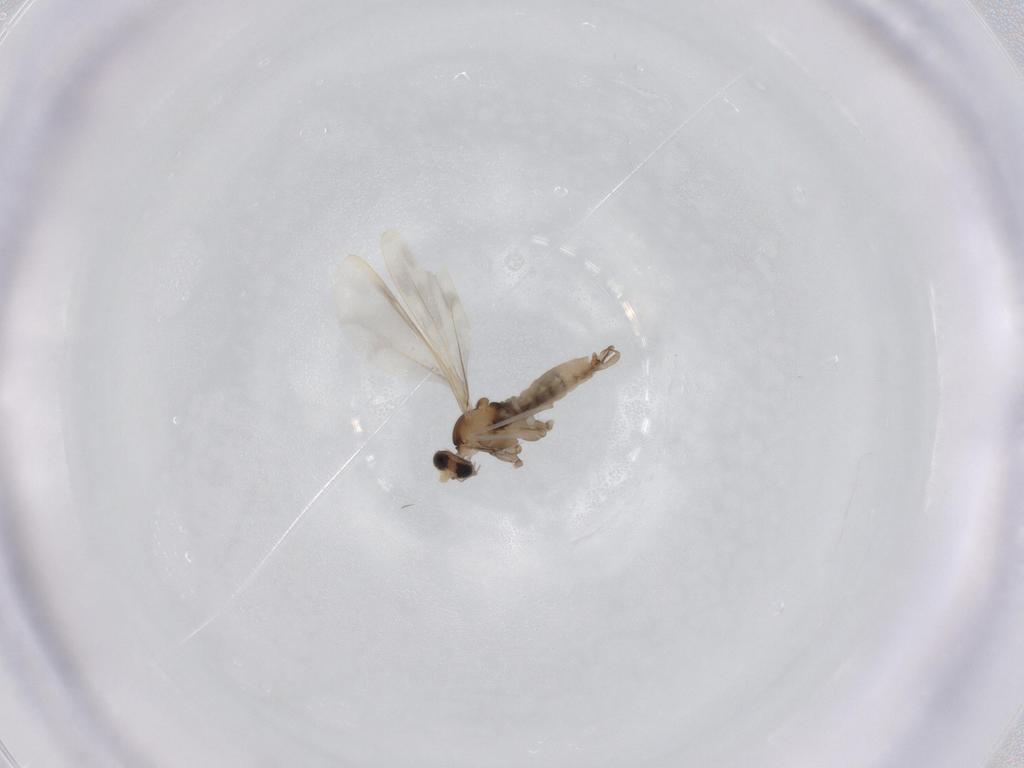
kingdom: Animalia
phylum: Arthropoda
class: Insecta
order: Diptera
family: Cecidomyiidae
